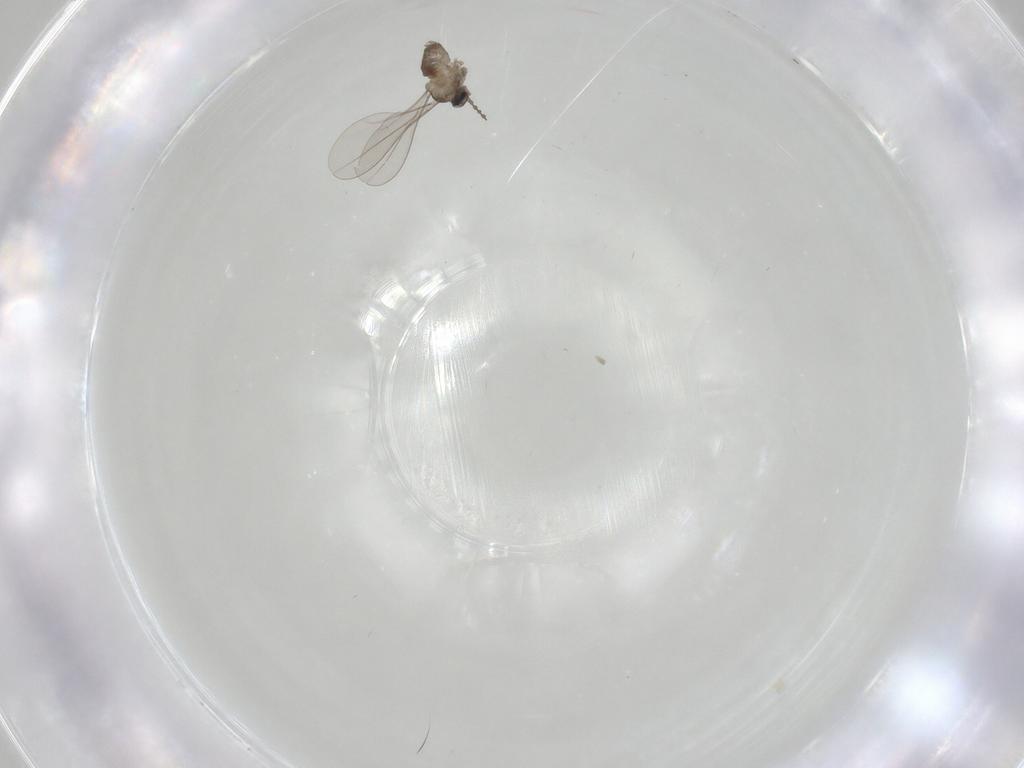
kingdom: Animalia
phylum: Arthropoda
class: Insecta
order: Diptera
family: Cecidomyiidae
